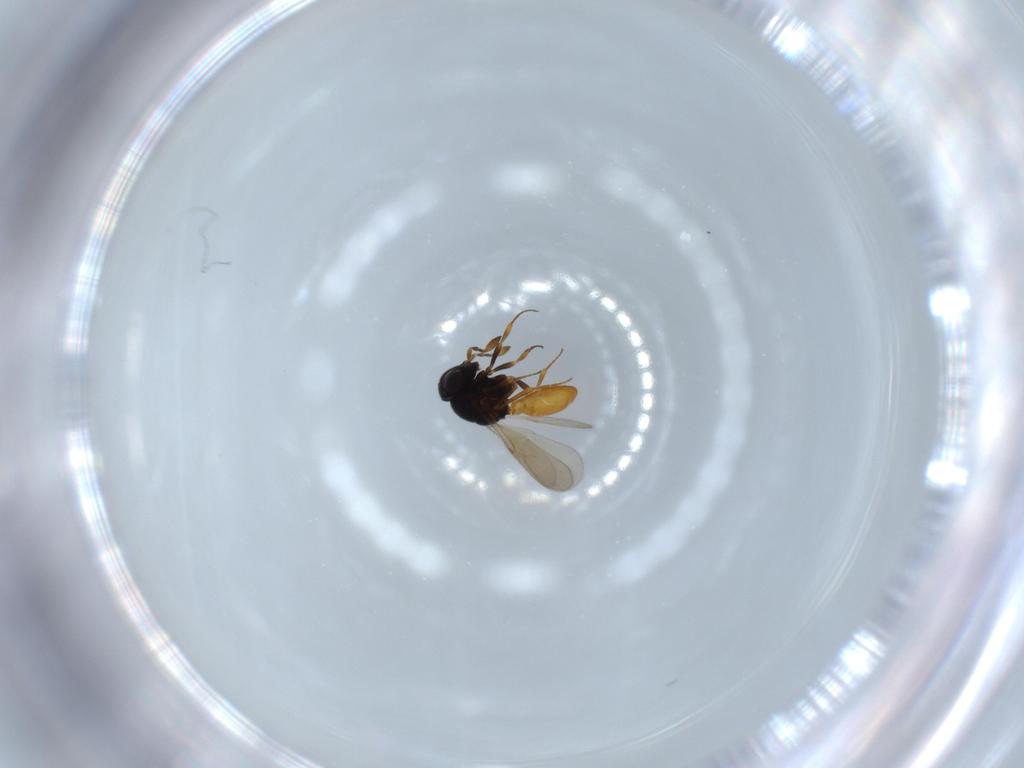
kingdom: Animalia
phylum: Arthropoda
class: Insecta
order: Hymenoptera
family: Scelionidae
